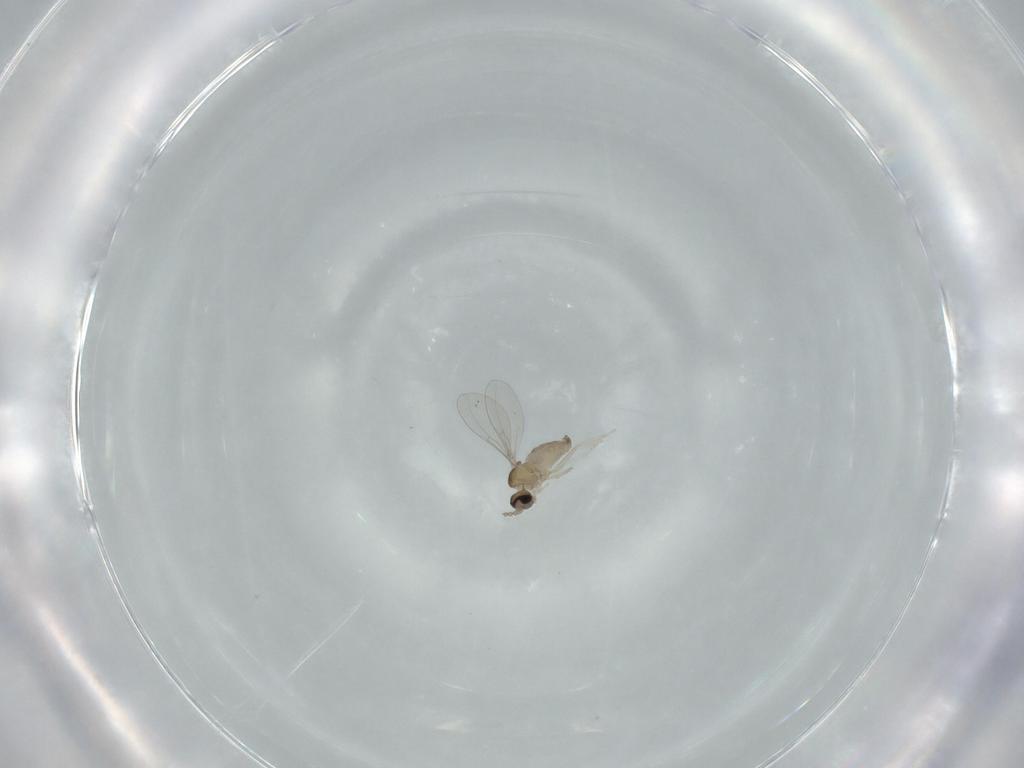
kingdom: Animalia
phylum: Arthropoda
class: Insecta
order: Diptera
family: Cecidomyiidae
